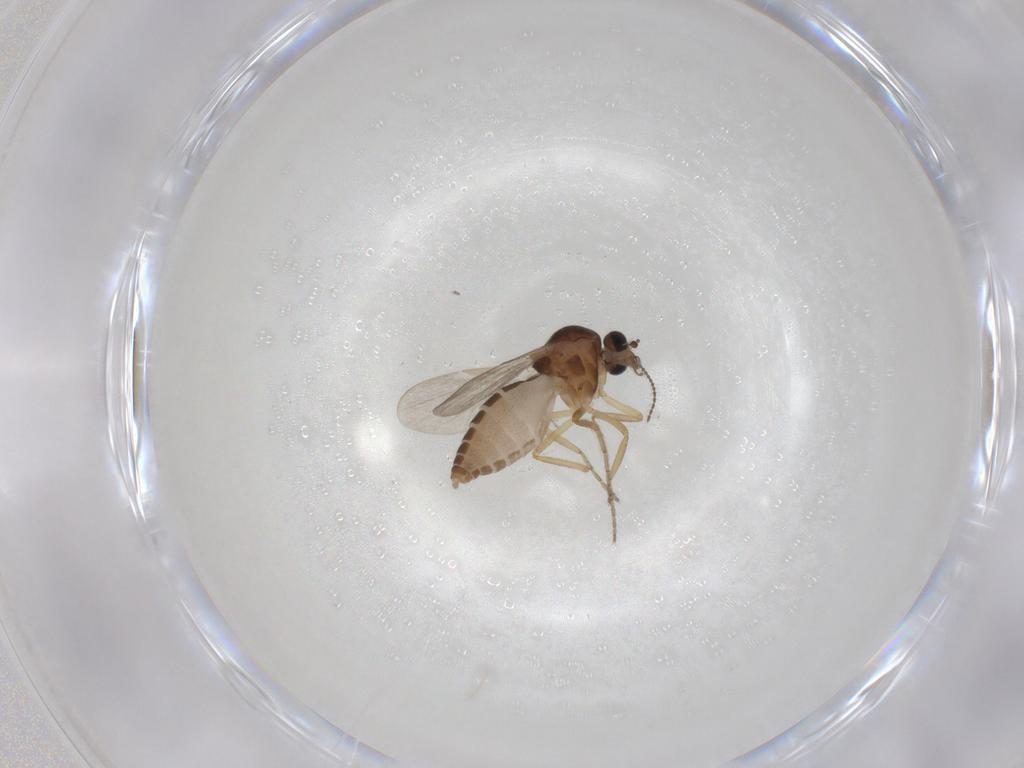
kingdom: Animalia
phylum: Arthropoda
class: Insecta
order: Diptera
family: Ceratopogonidae
